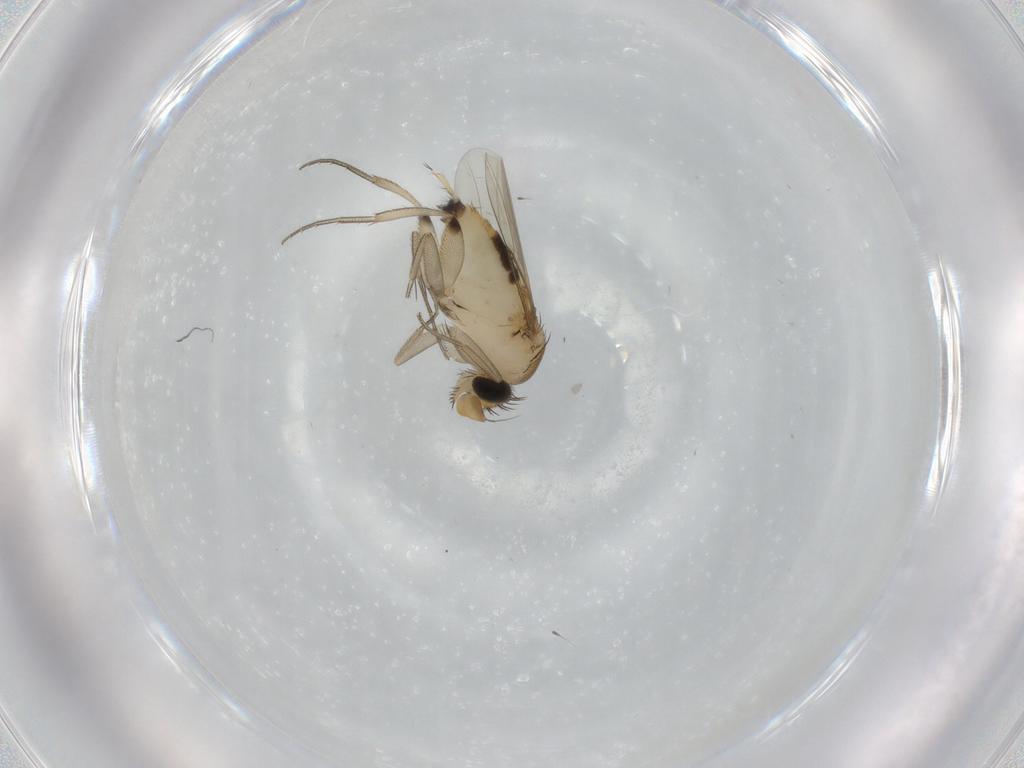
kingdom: Animalia
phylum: Arthropoda
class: Insecta
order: Diptera
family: Phoridae
